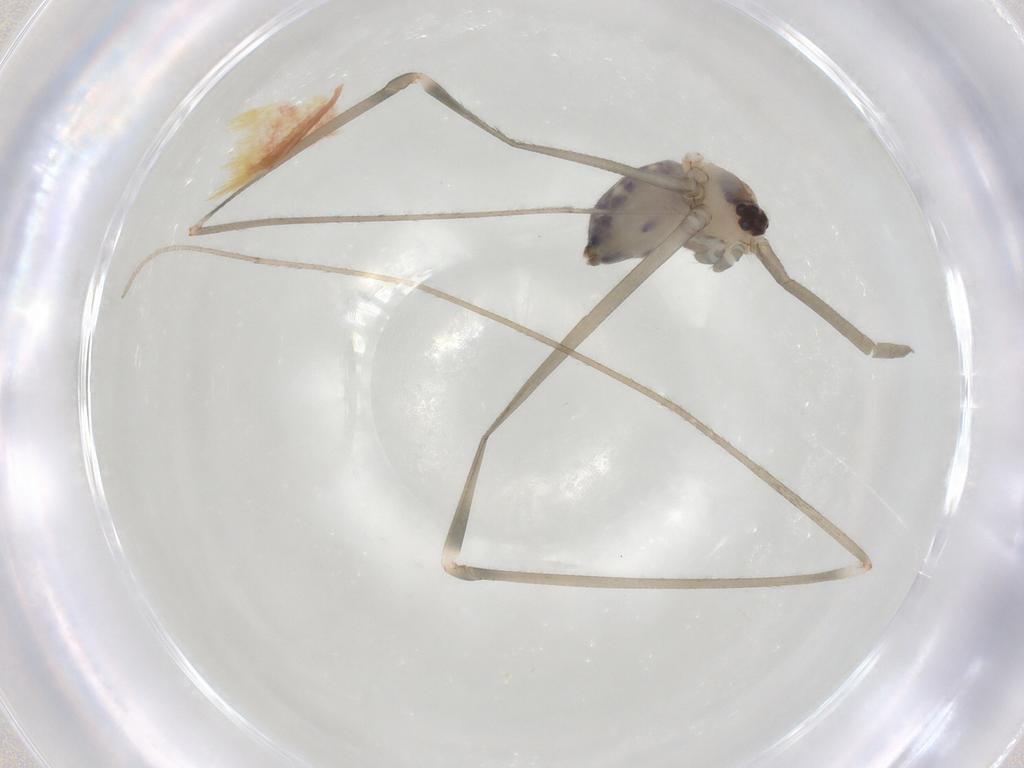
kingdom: Animalia
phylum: Arthropoda
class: Arachnida
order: Araneae
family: Pholcidae
